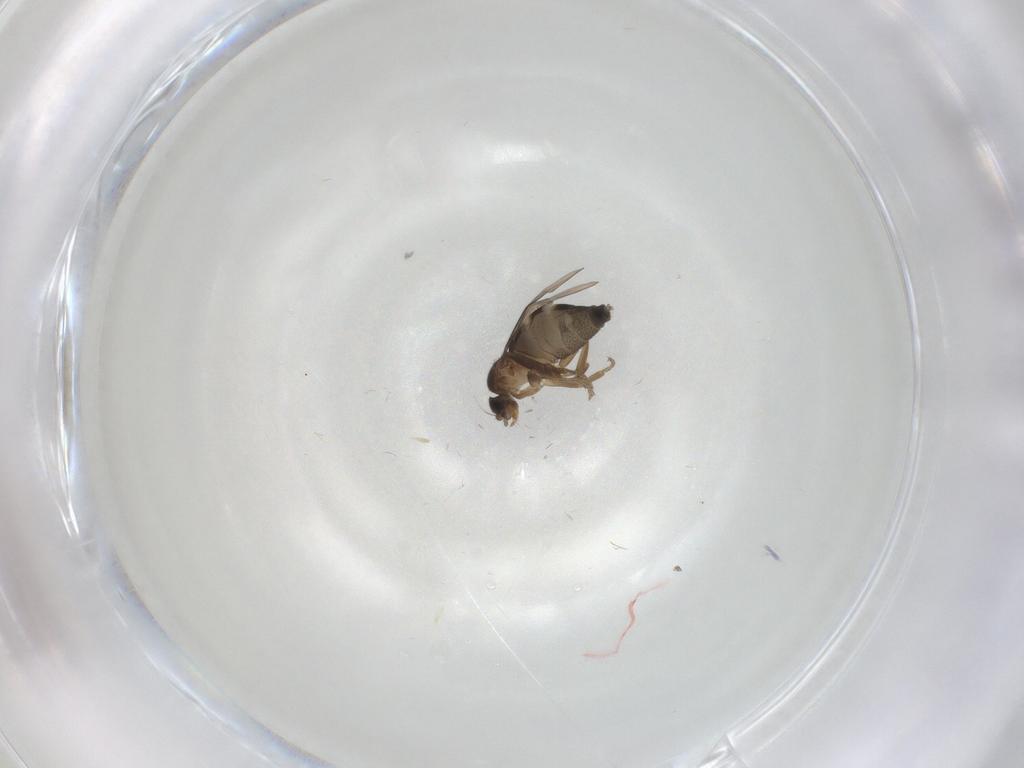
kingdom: Animalia
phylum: Arthropoda
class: Insecta
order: Diptera
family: Phoridae
